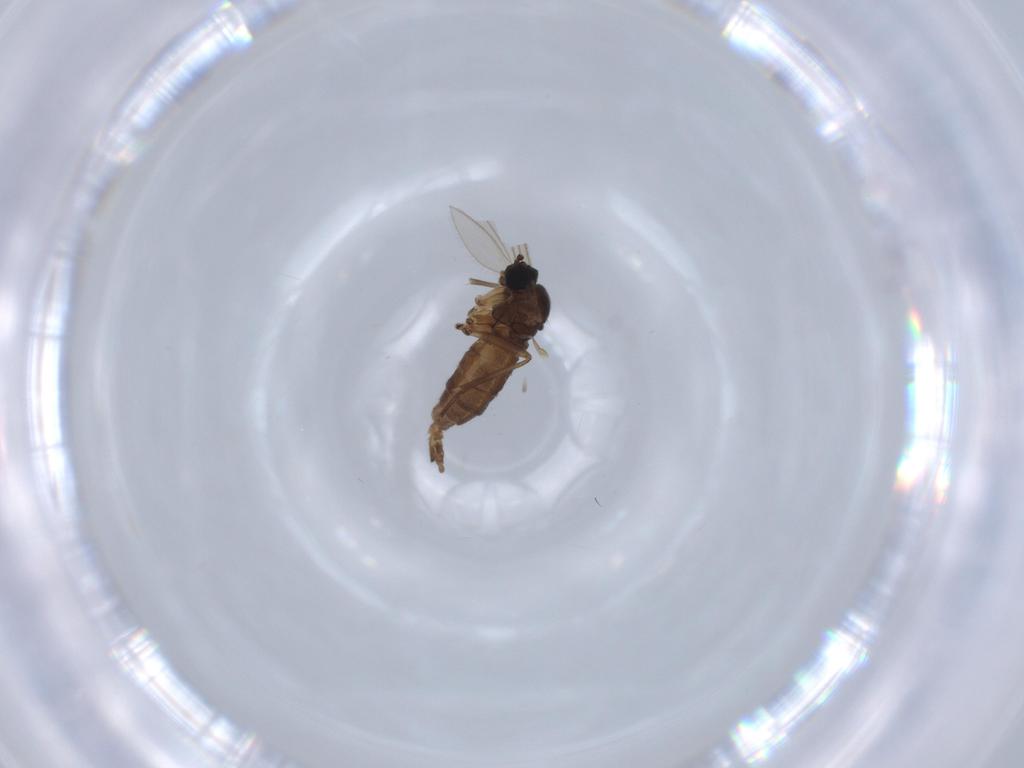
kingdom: Animalia
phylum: Arthropoda
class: Insecta
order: Diptera
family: Sciaridae
